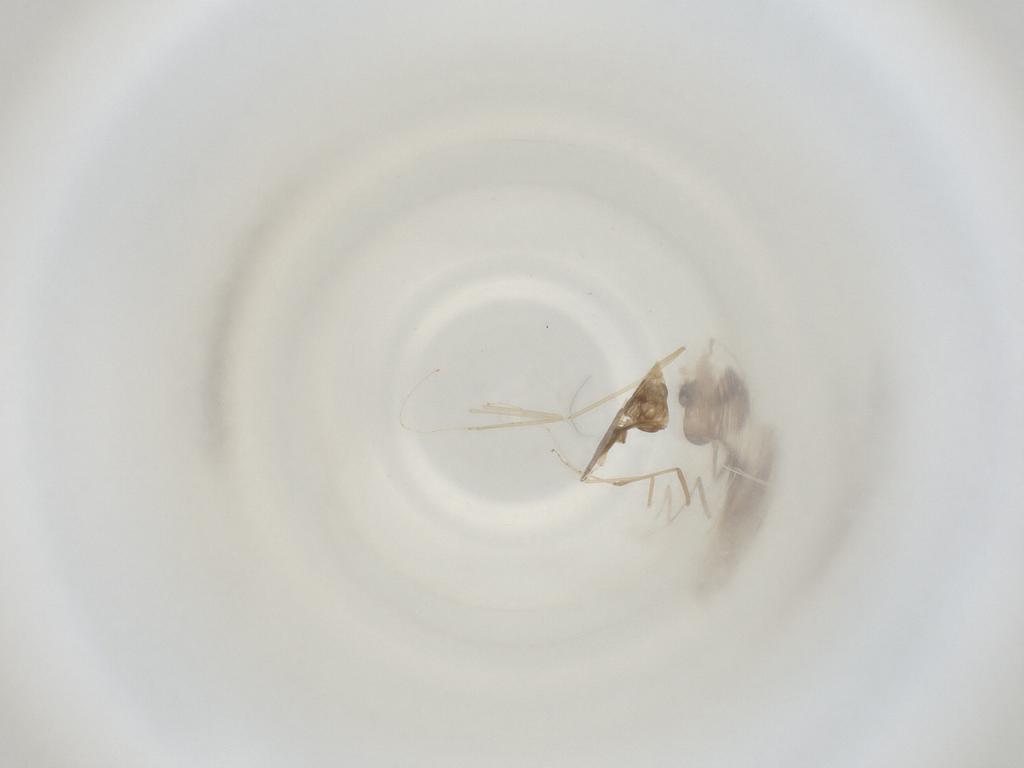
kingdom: Animalia
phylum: Arthropoda
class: Insecta
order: Diptera
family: Cecidomyiidae
